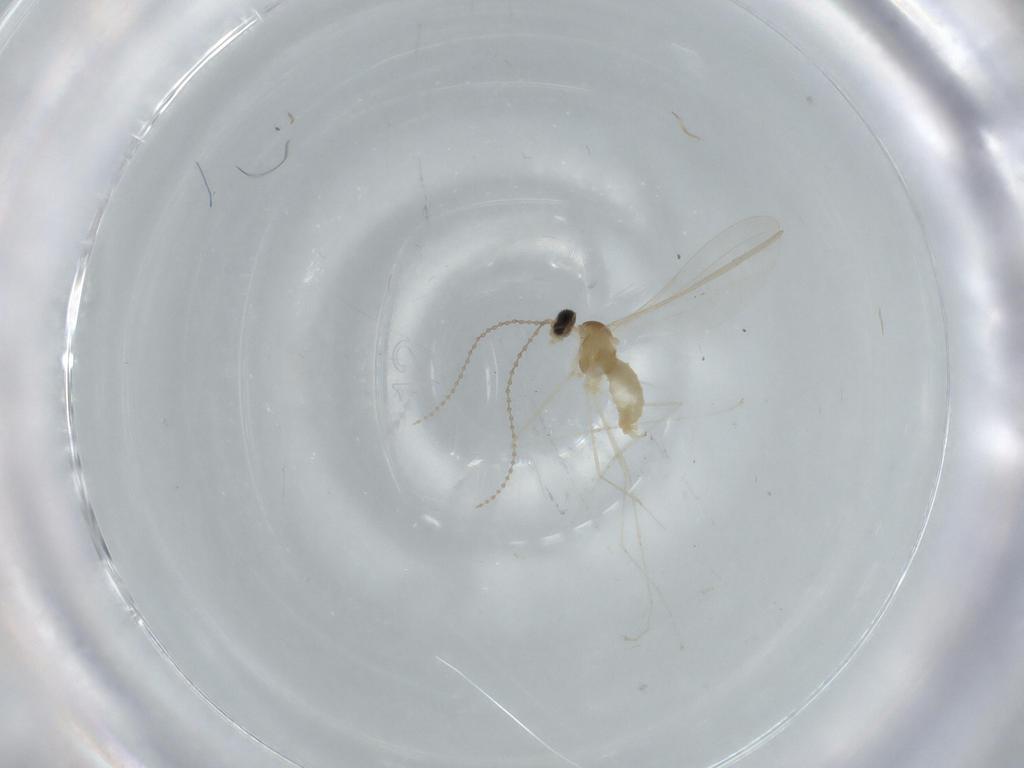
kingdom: Animalia
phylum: Arthropoda
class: Insecta
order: Diptera
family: Cecidomyiidae
